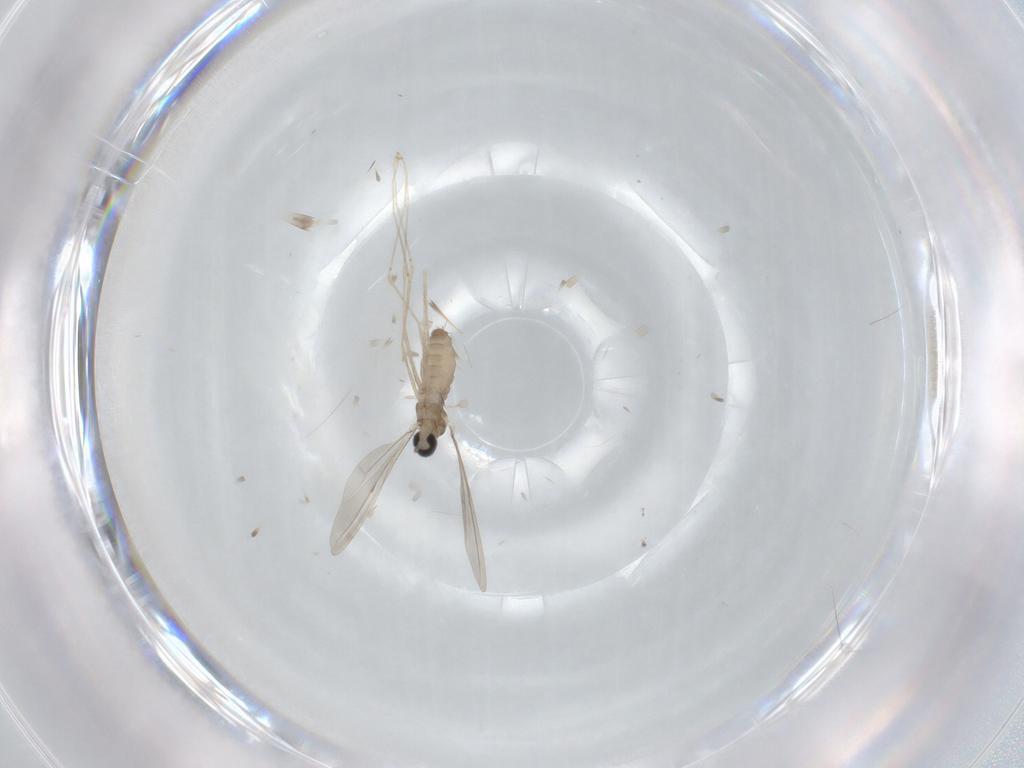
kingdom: Animalia
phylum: Arthropoda
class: Insecta
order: Diptera
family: Cecidomyiidae
